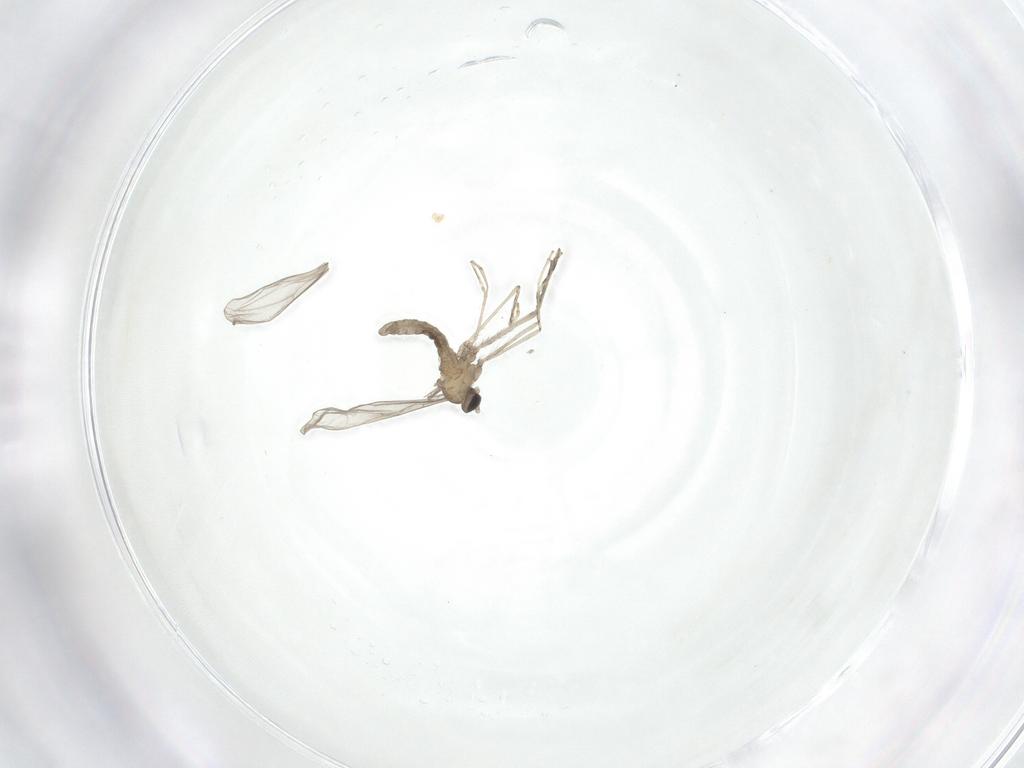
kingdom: Animalia
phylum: Arthropoda
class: Insecta
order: Diptera
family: Cecidomyiidae
